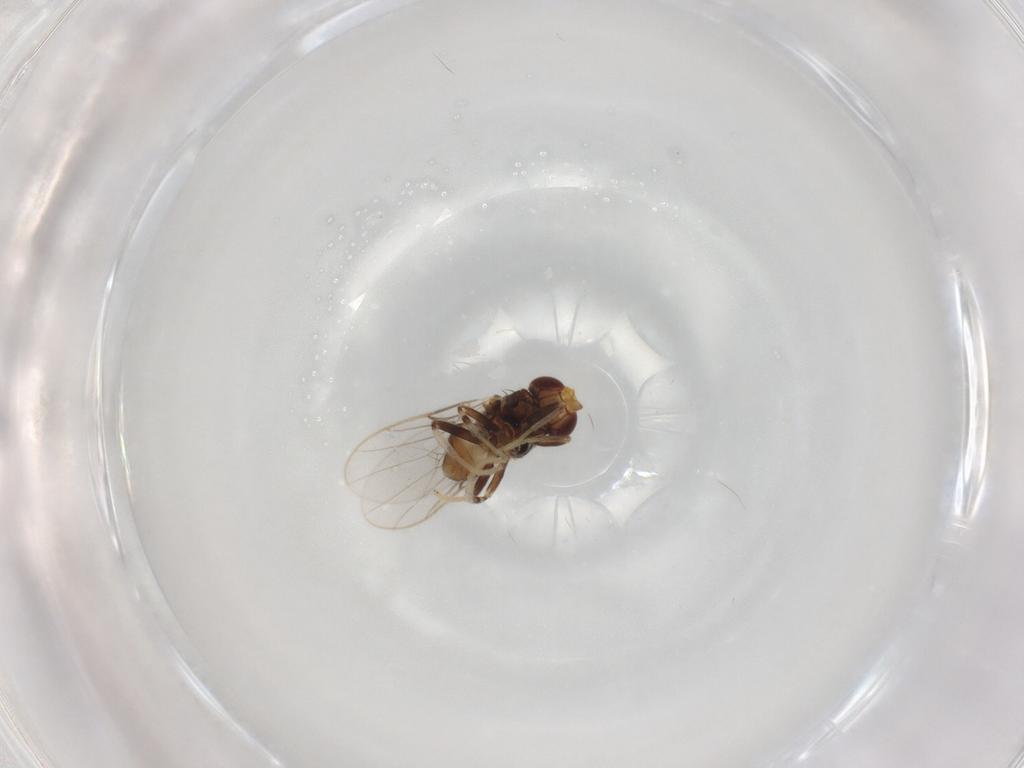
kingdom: Animalia
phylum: Arthropoda
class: Insecta
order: Diptera
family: Chloropidae
